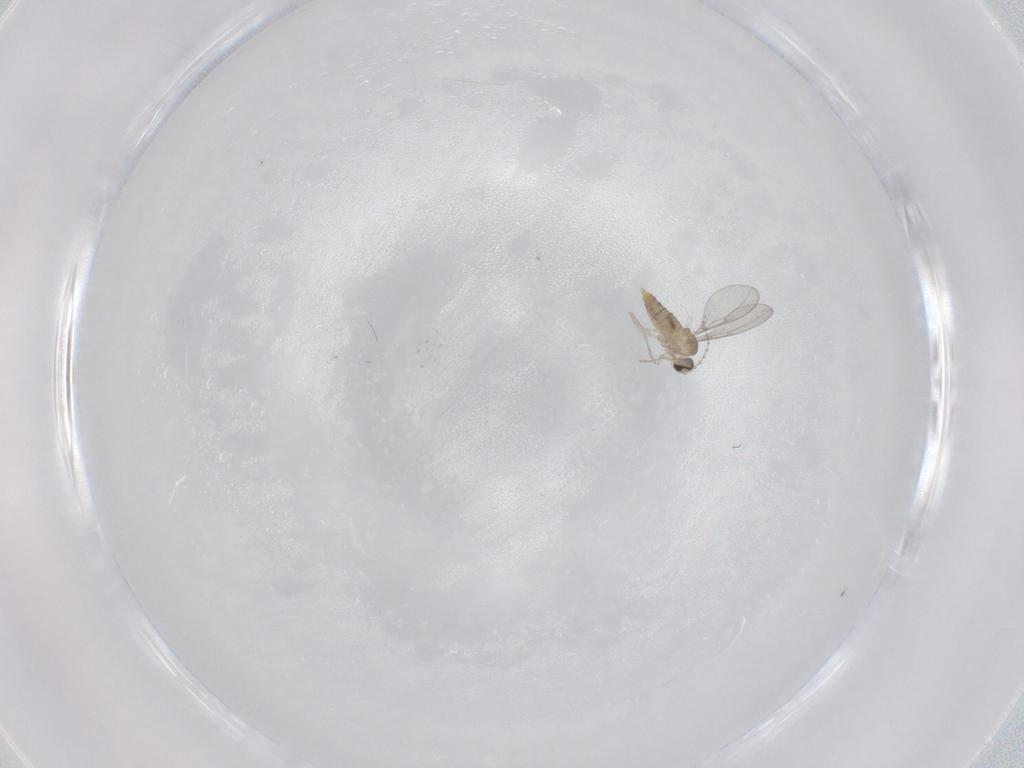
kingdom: Animalia
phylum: Arthropoda
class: Insecta
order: Diptera
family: Cecidomyiidae
